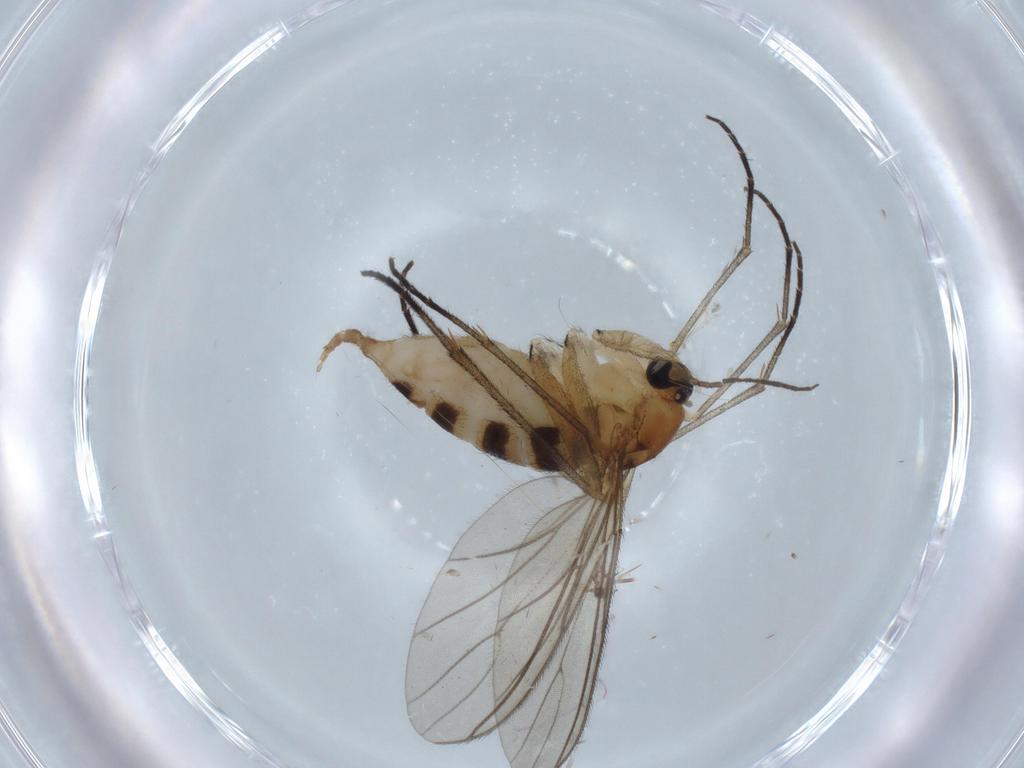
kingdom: Animalia
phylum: Arthropoda
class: Insecta
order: Diptera
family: Sciaridae
